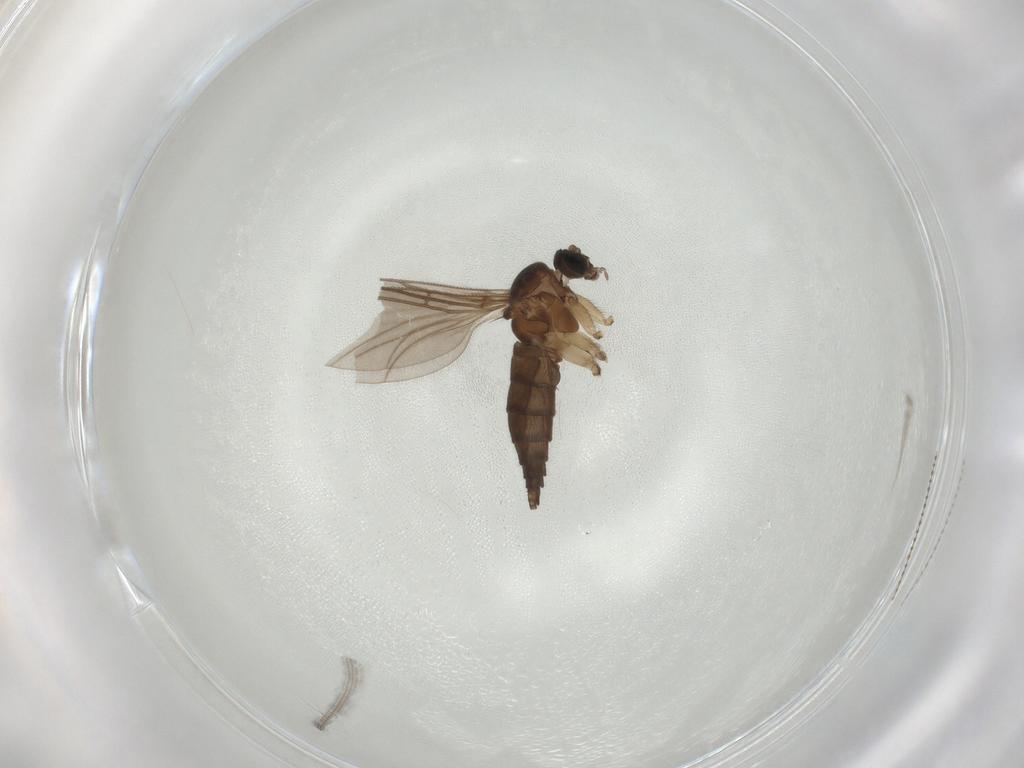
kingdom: Animalia
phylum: Arthropoda
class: Insecta
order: Diptera
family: Sciaridae
